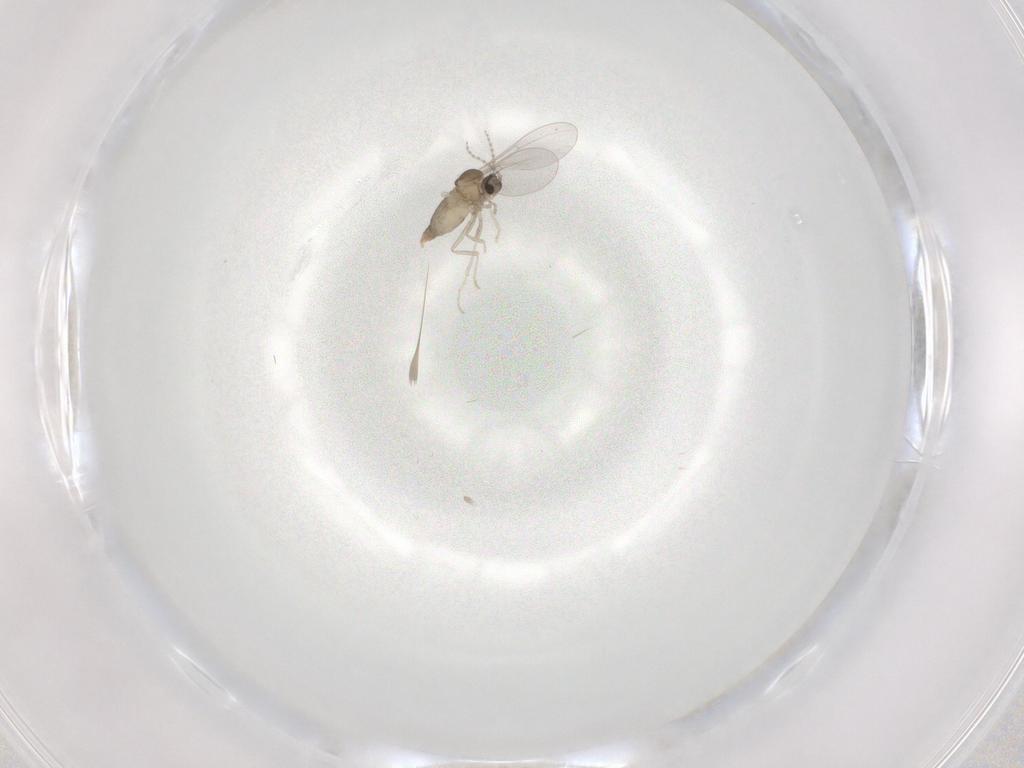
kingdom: Animalia
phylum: Arthropoda
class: Insecta
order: Diptera
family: Cecidomyiidae
